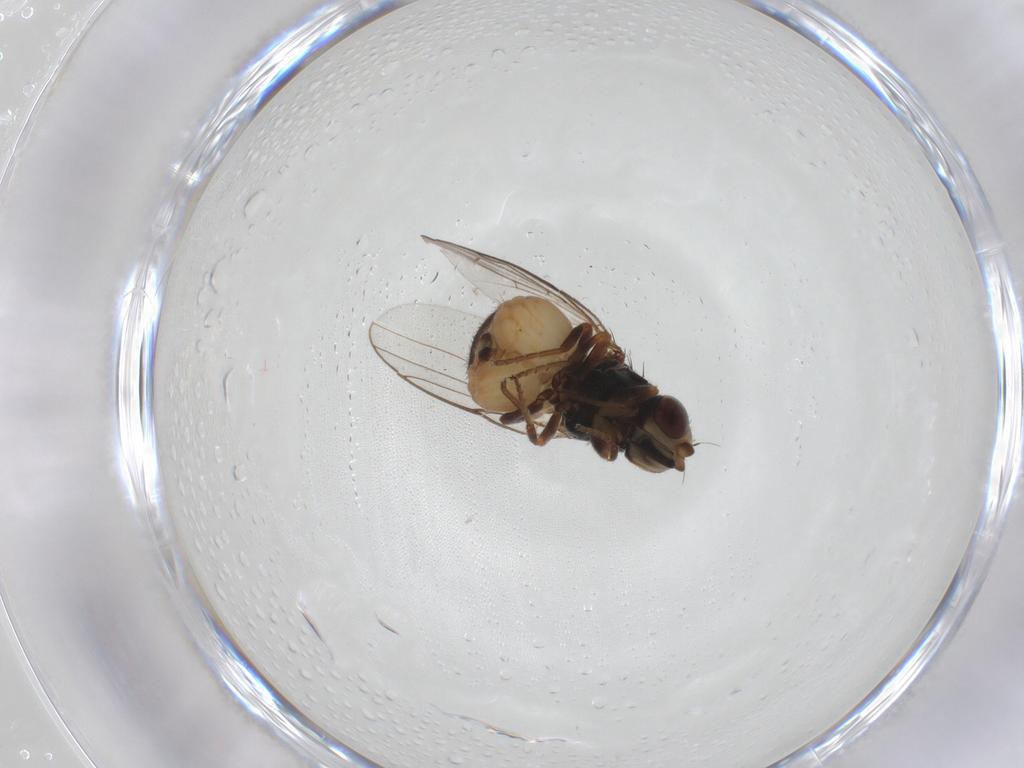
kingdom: Animalia
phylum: Arthropoda
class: Insecta
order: Diptera
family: Chloropidae
